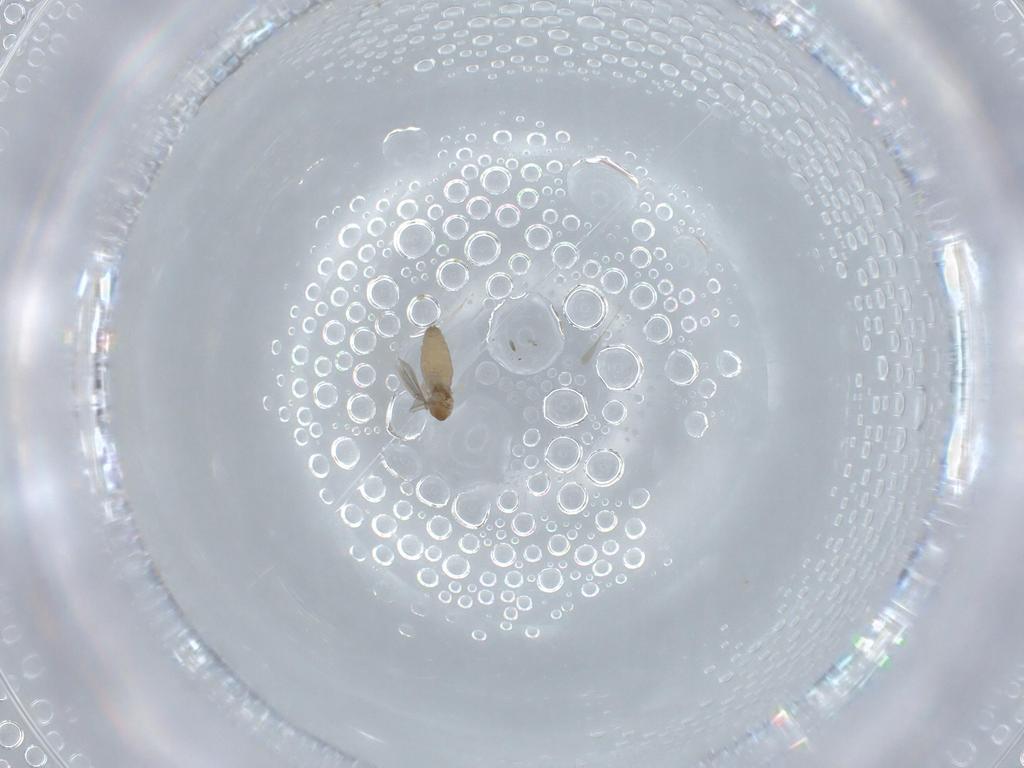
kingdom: Animalia
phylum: Arthropoda
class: Insecta
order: Diptera
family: Cecidomyiidae
